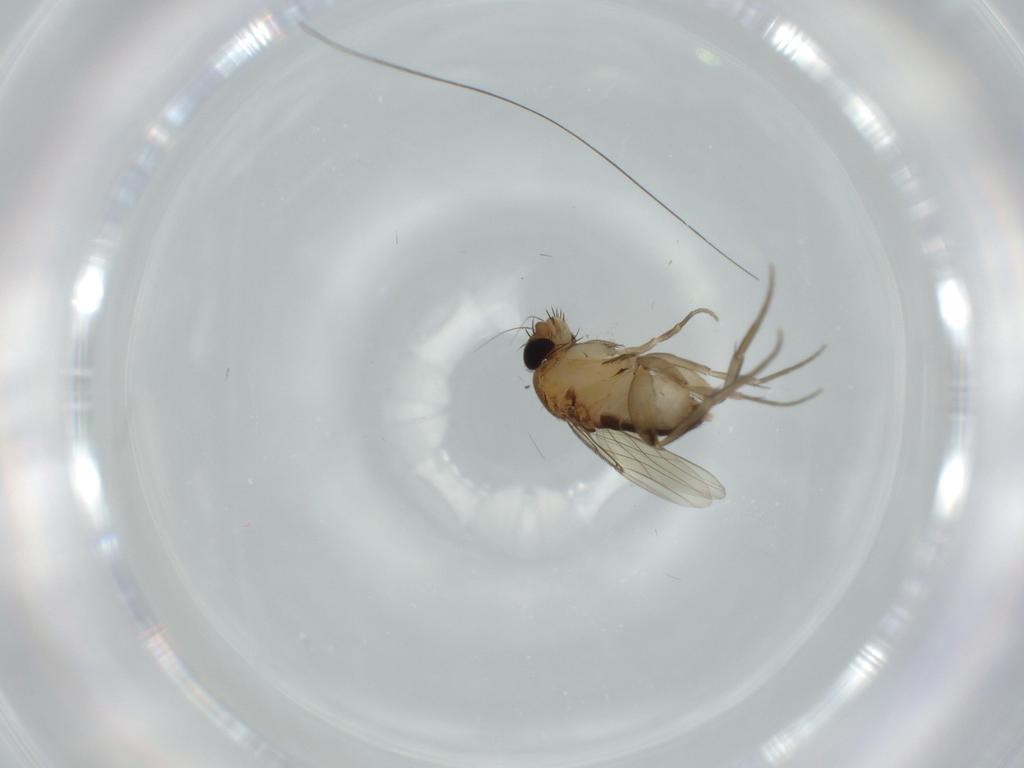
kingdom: Animalia
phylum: Arthropoda
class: Insecta
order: Diptera
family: Phoridae
